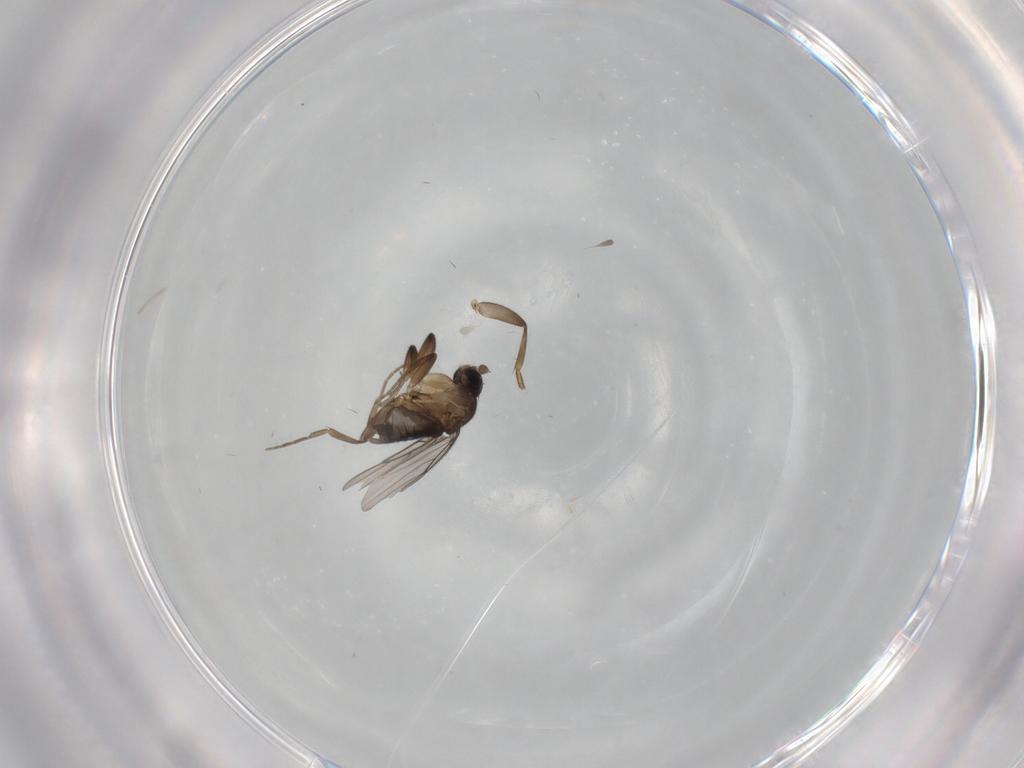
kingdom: Animalia
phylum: Arthropoda
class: Insecta
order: Diptera
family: Phoridae
